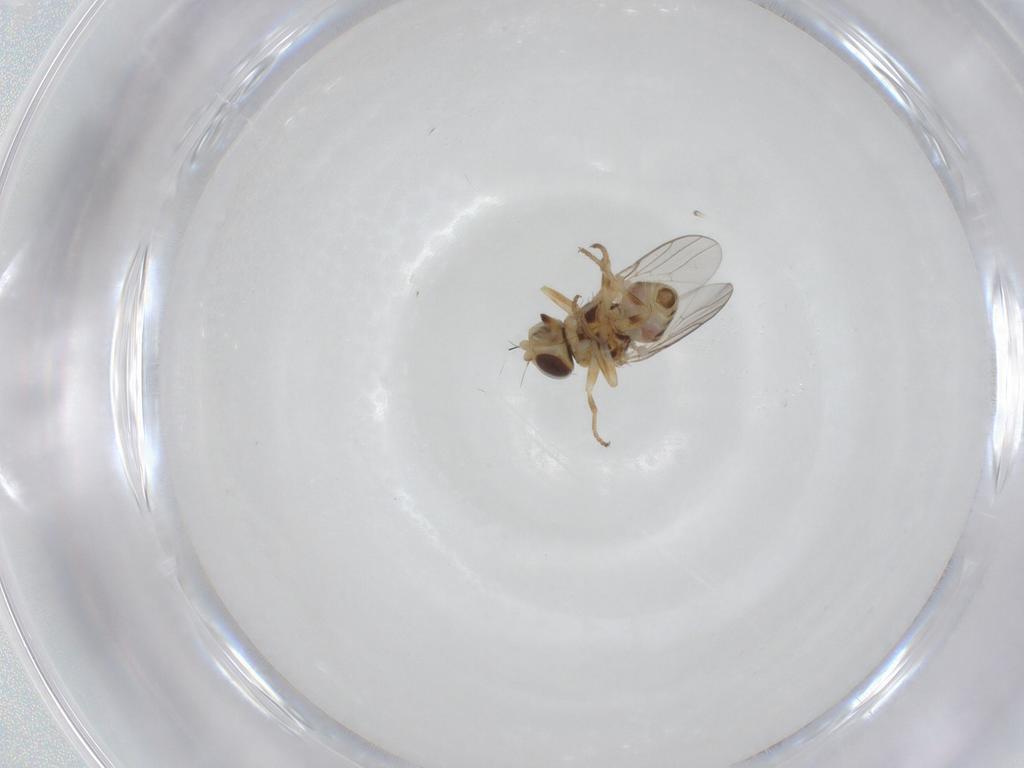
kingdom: Animalia
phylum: Arthropoda
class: Insecta
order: Diptera
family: Chloropidae
